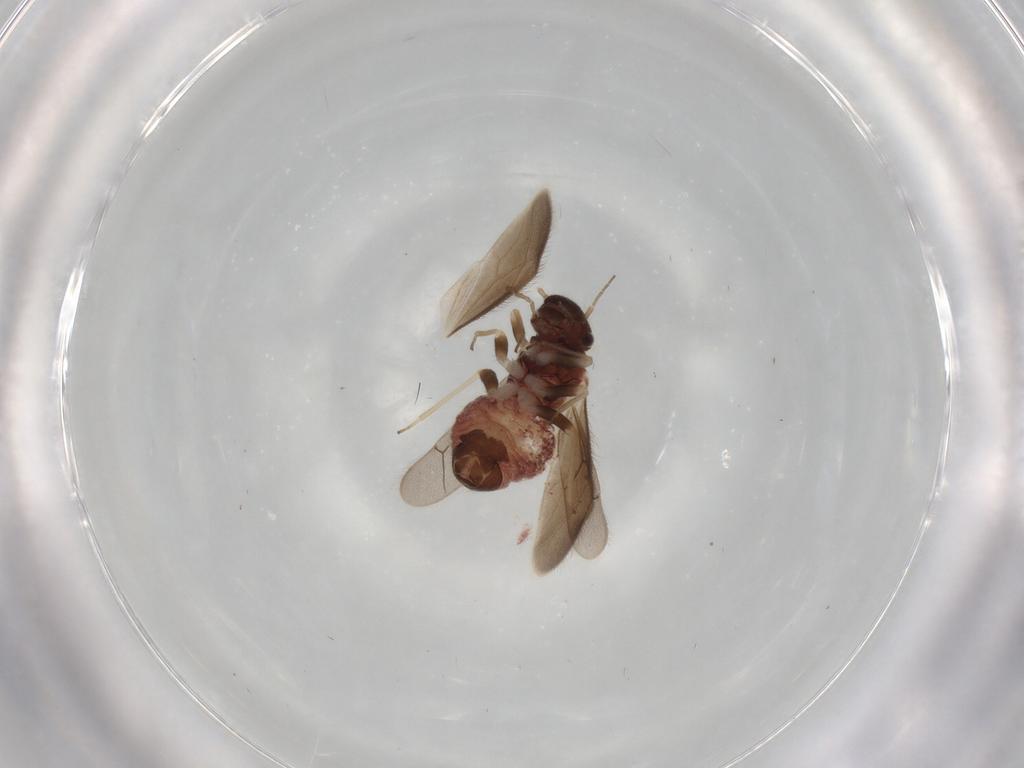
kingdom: Animalia
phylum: Arthropoda
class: Insecta
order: Psocodea
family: Archipsocidae
